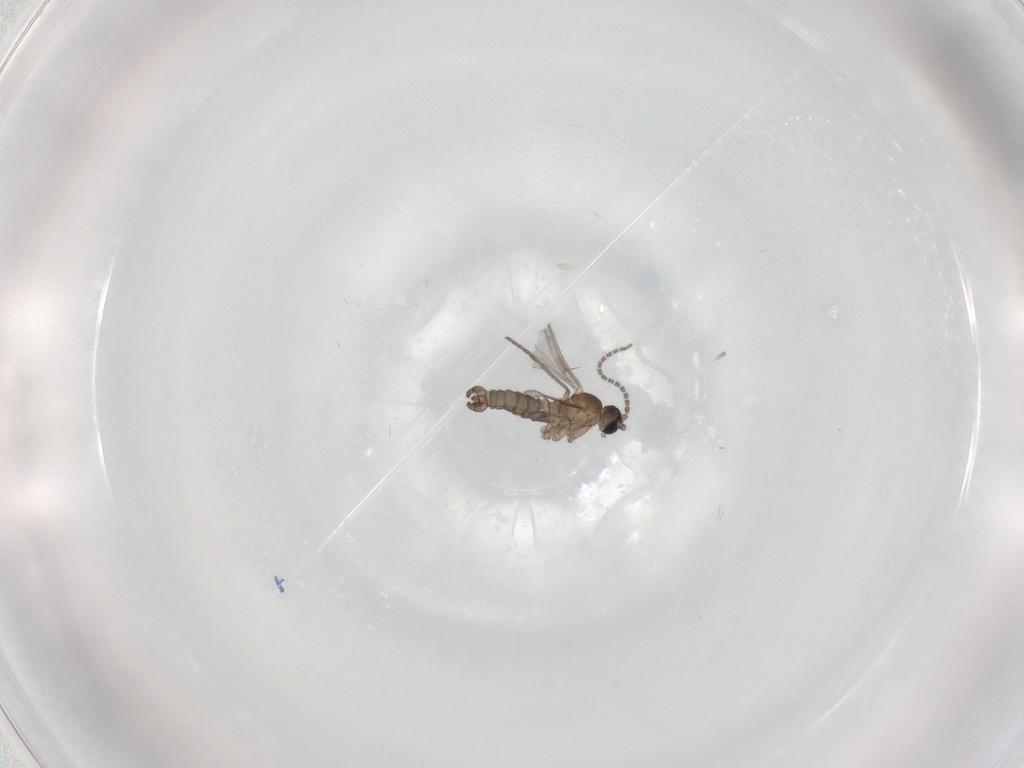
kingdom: Animalia
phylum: Arthropoda
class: Insecta
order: Diptera
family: Sciaridae
